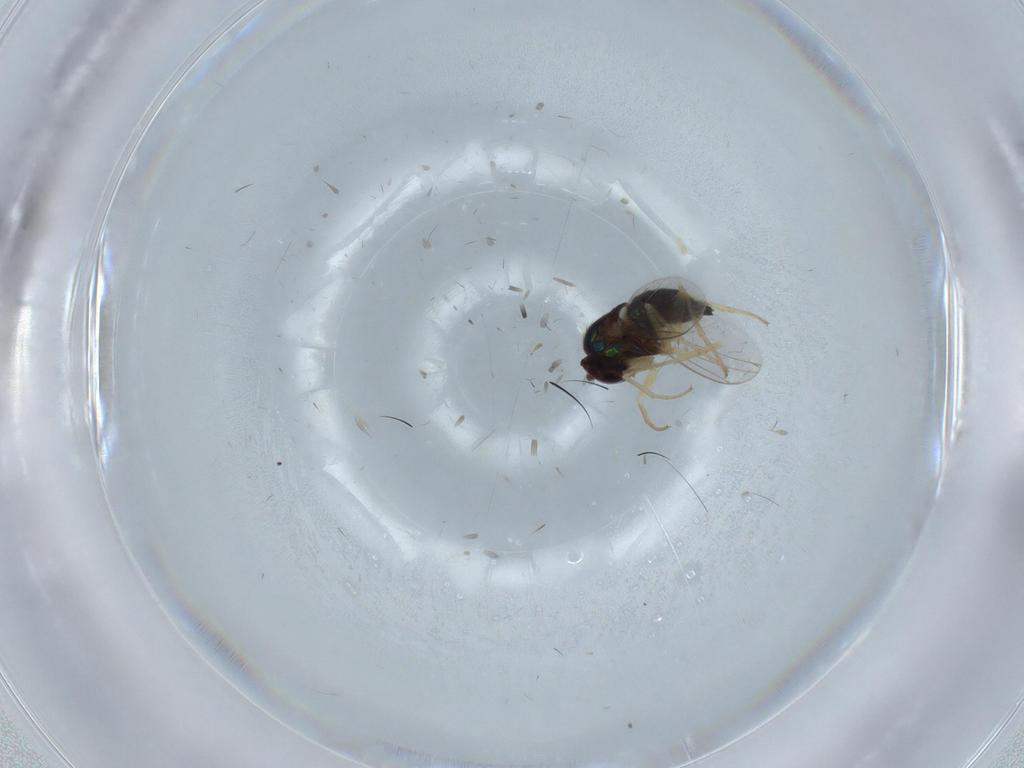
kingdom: Animalia
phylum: Arthropoda
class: Insecta
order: Diptera
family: Dolichopodidae
